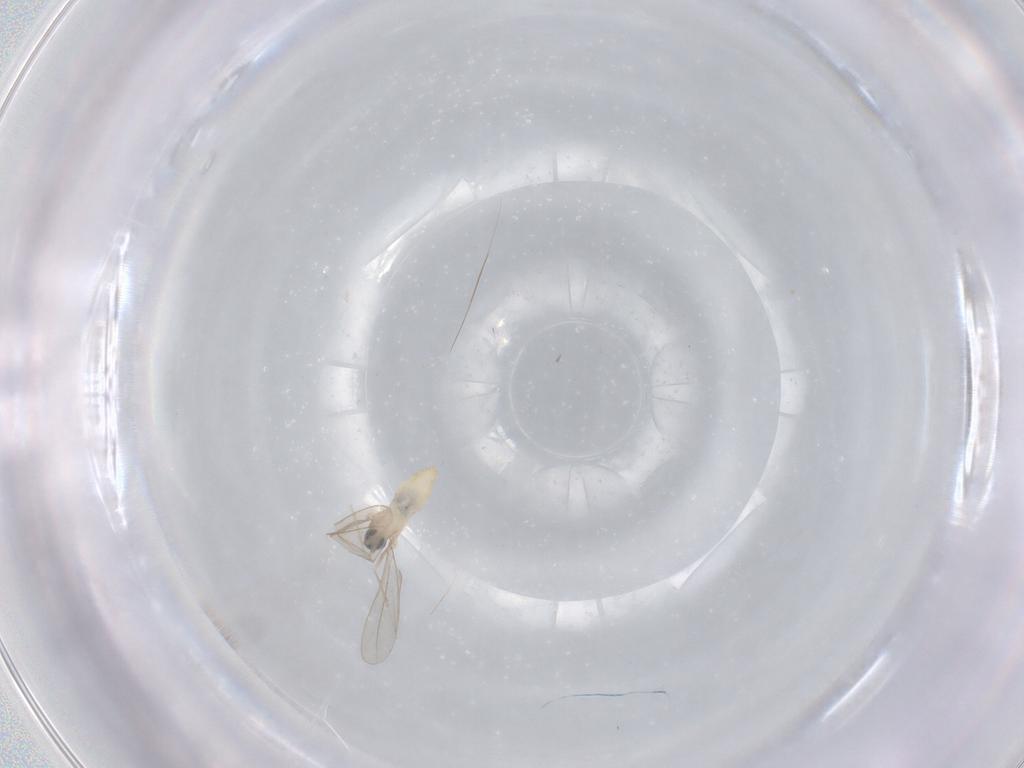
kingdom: Animalia
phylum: Arthropoda
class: Insecta
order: Diptera
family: Cecidomyiidae
